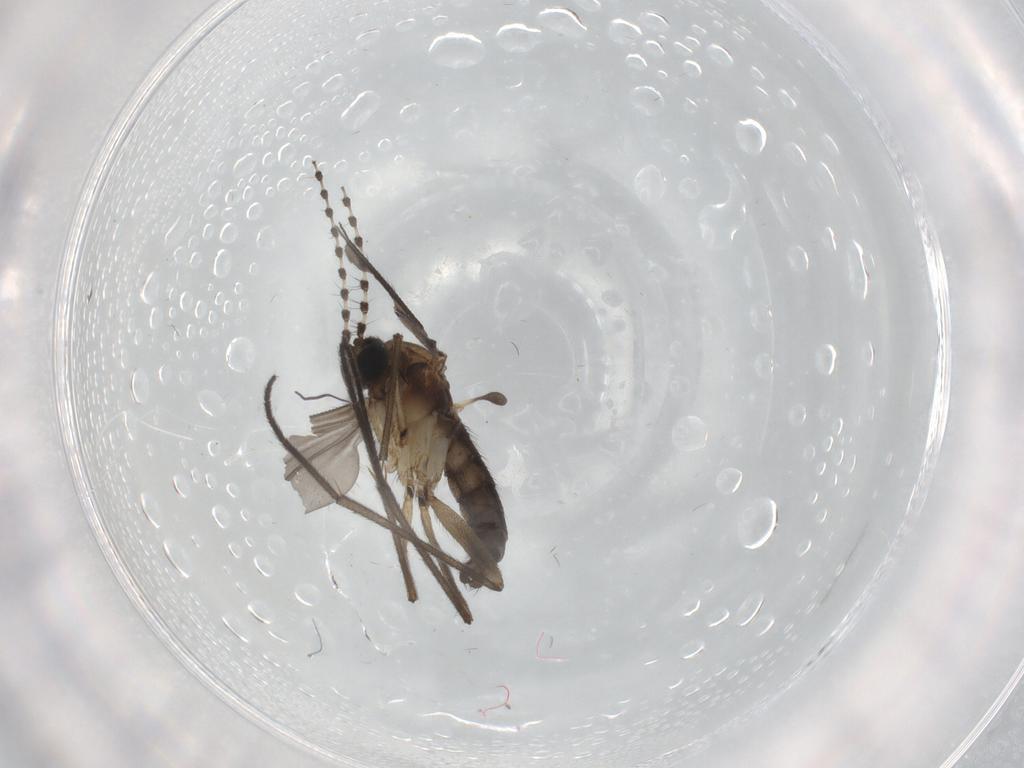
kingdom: Animalia
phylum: Arthropoda
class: Insecta
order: Diptera
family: Sciaridae
